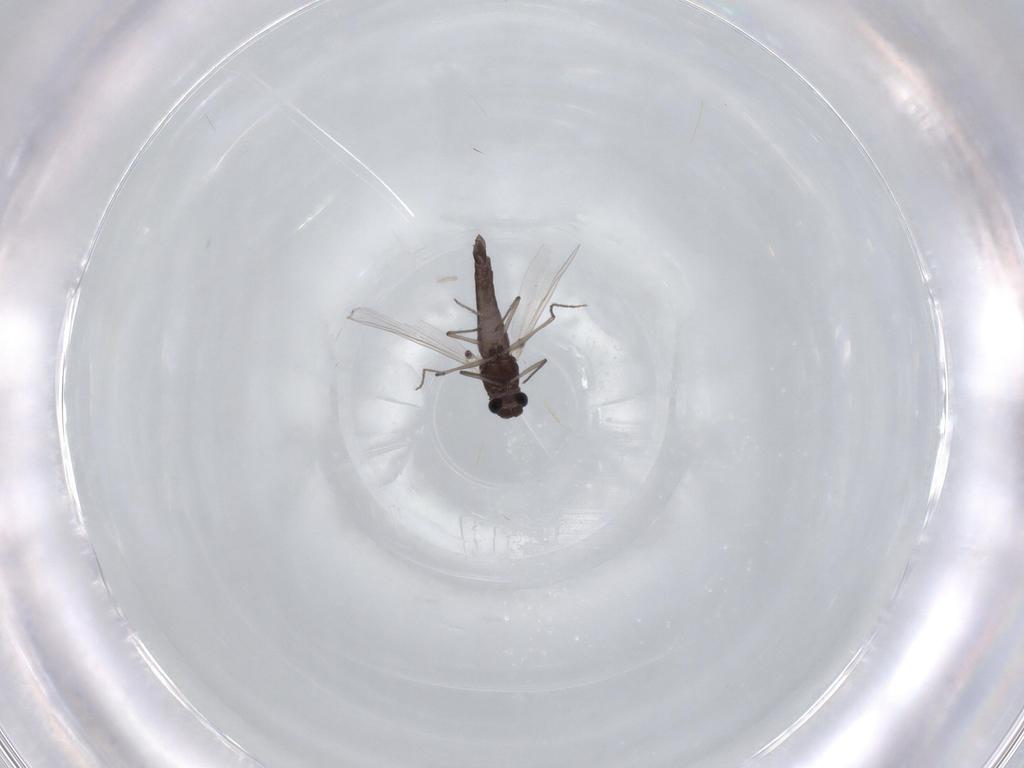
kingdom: Animalia
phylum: Arthropoda
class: Insecta
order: Diptera
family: Chironomidae
